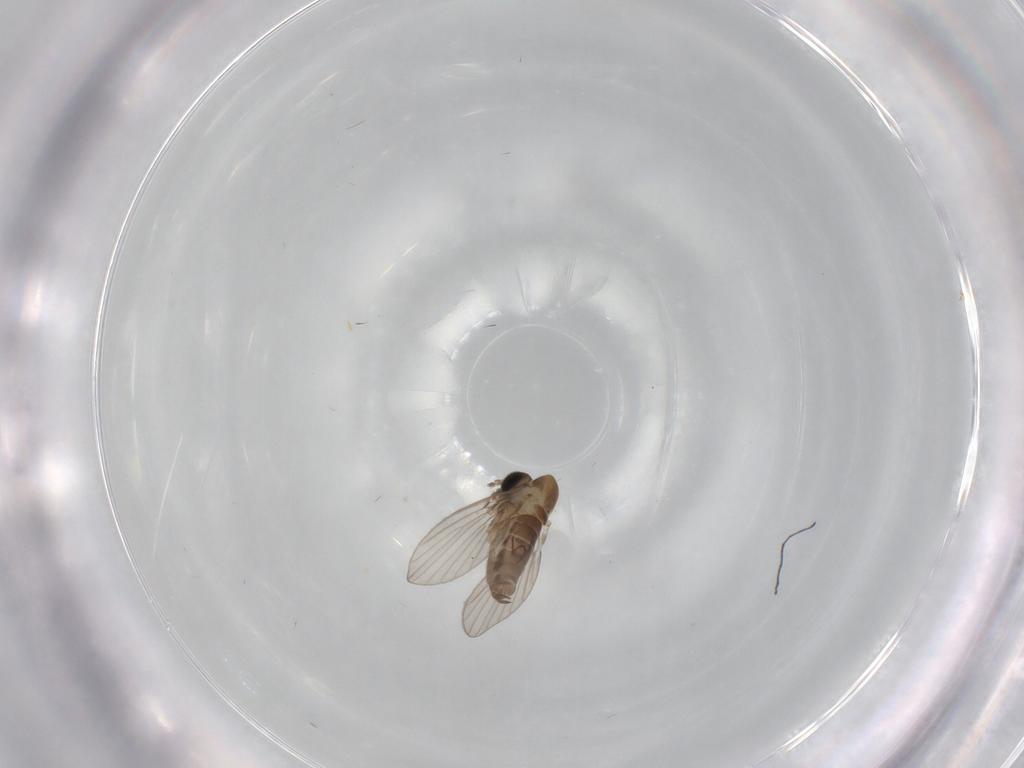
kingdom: Animalia
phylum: Arthropoda
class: Insecta
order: Diptera
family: Psychodidae
